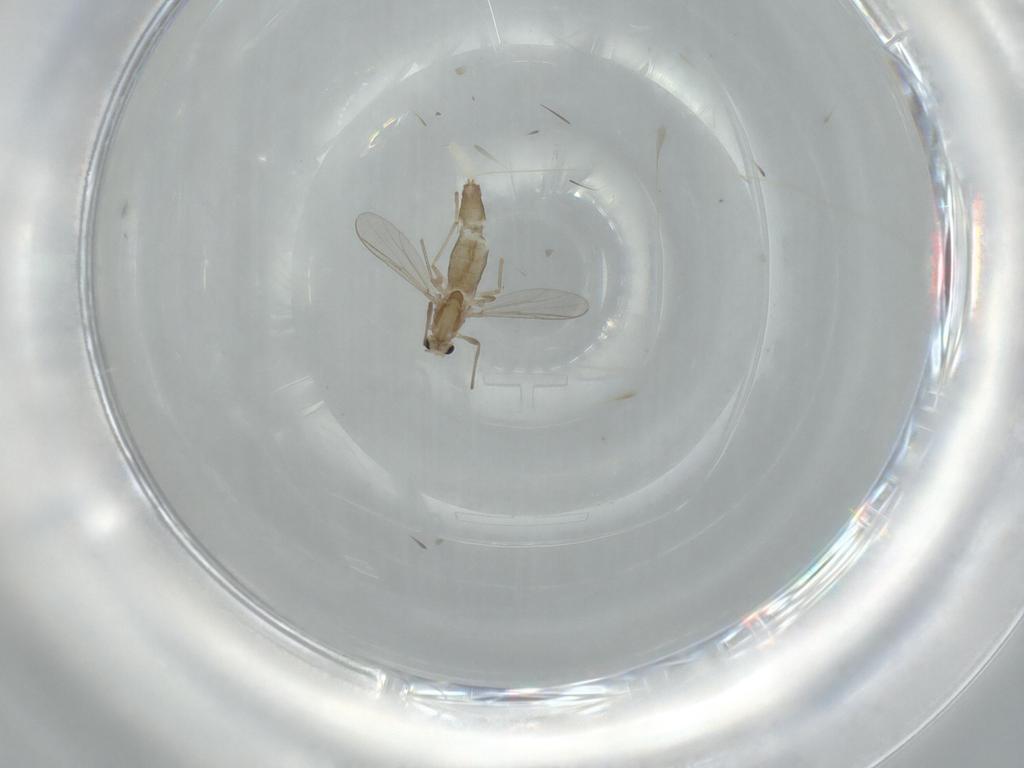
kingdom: Animalia
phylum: Arthropoda
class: Insecta
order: Diptera
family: Chironomidae
